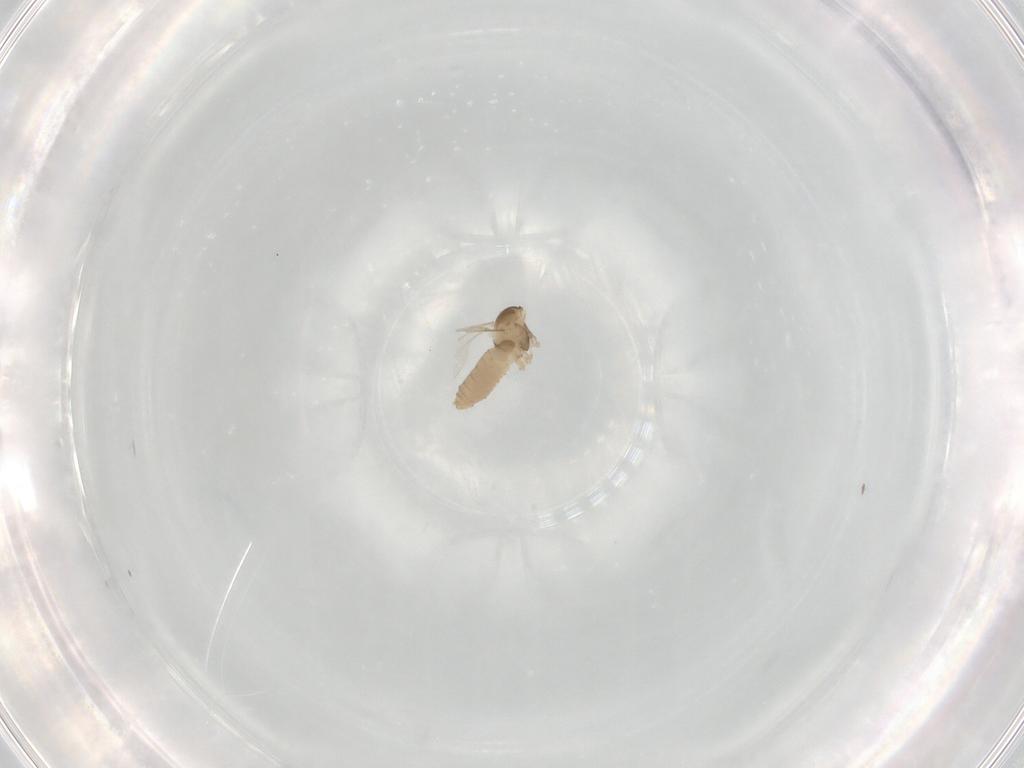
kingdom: Animalia
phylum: Arthropoda
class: Insecta
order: Diptera
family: Cecidomyiidae
